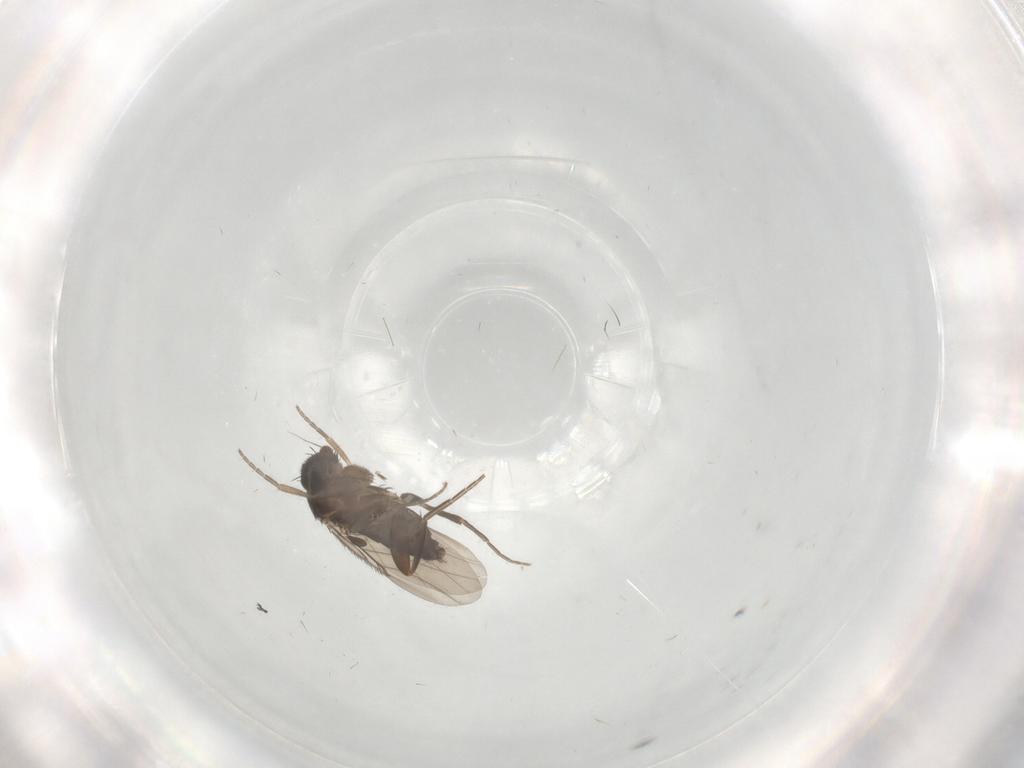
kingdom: Animalia
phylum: Arthropoda
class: Insecta
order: Diptera
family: Phoridae
